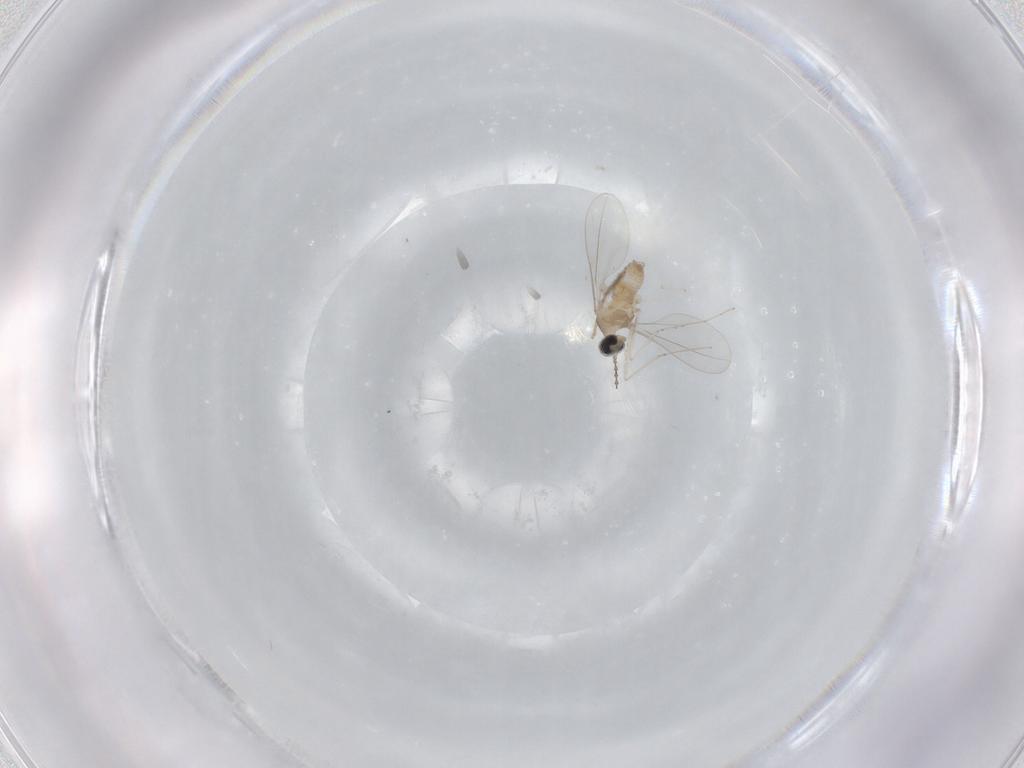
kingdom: Animalia
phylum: Arthropoda
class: Insecta
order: Diptera
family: Cecidomyiidae
